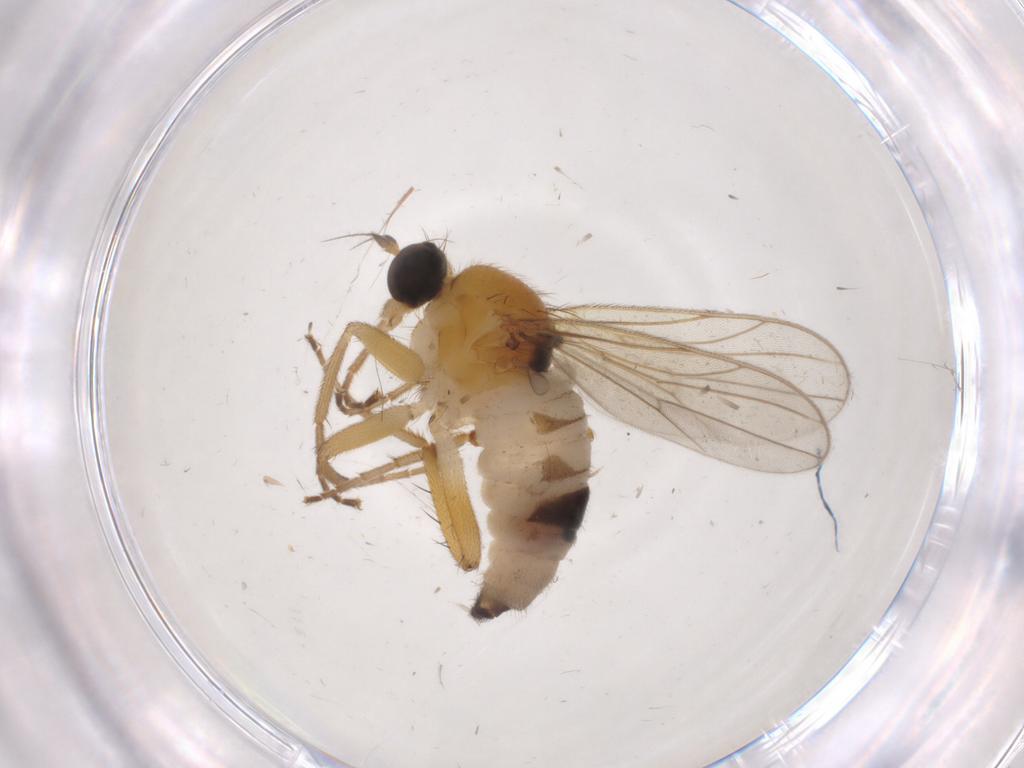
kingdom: Animalia
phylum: Arthropoda
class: Insecta
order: Diptera
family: Hybotidae
